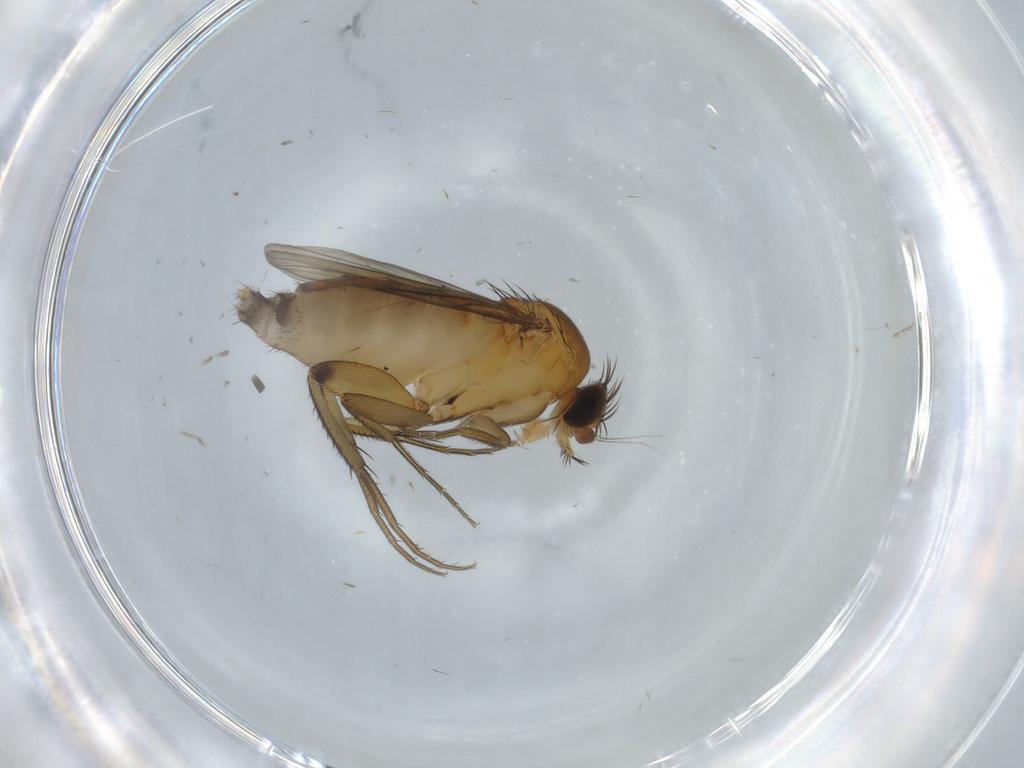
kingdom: Animalia
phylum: Arthropoda
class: Insecta
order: Diptera
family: Phoridae
